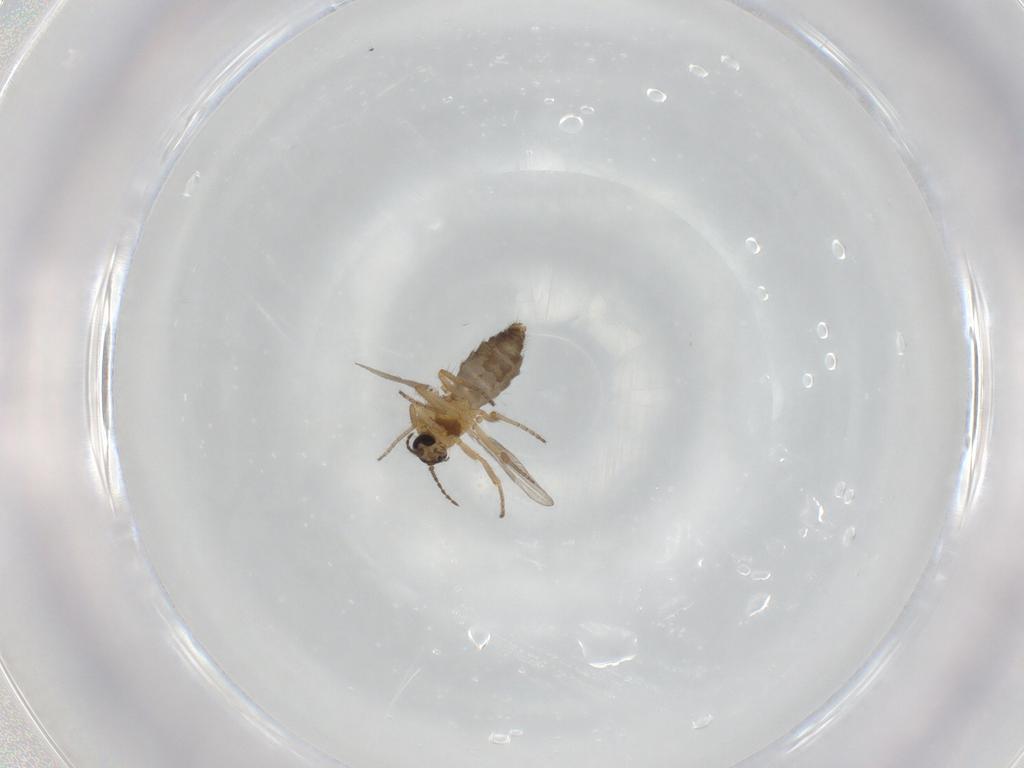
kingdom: Animalia
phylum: Arthropoda
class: Insecta
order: Diptera
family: Ceratopogonidae
